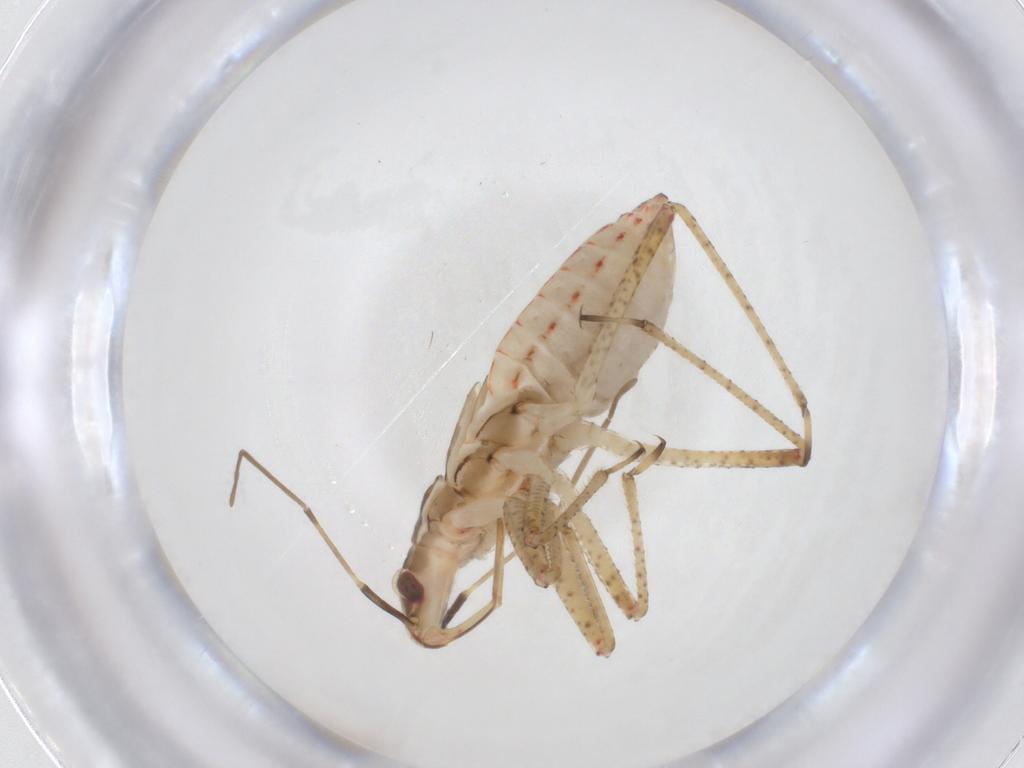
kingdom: Animalia
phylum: Arthropoda
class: Insecta
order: Hemiptera
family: Nabidae
